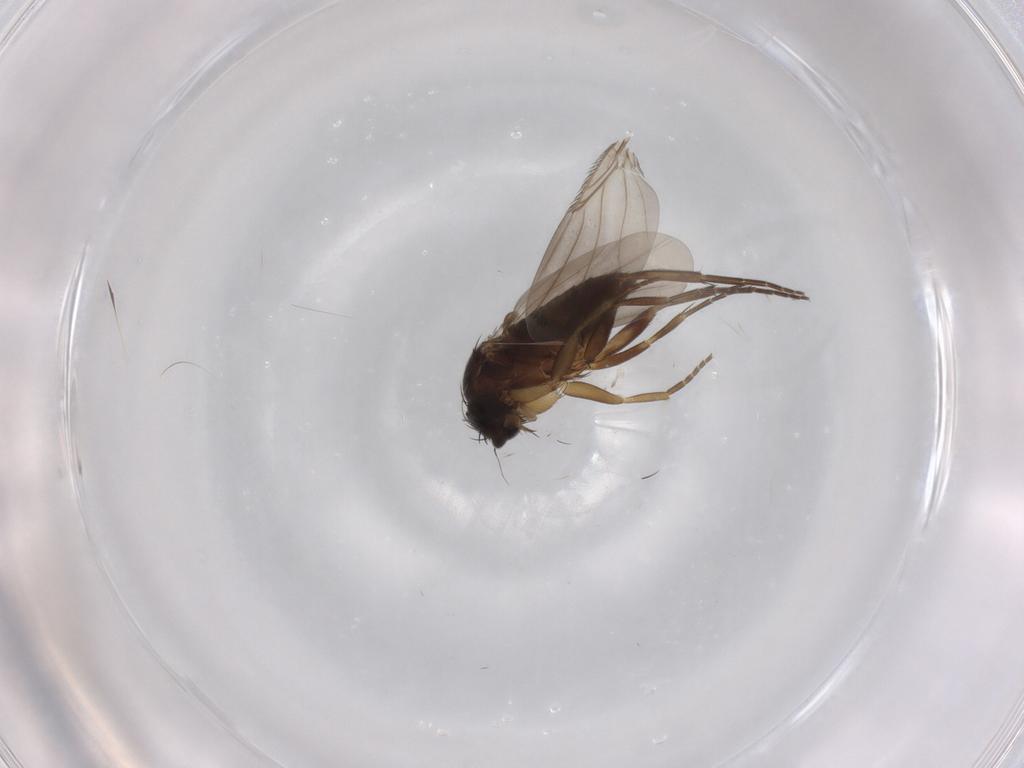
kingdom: Animalia
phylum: Arthropoda
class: Insecta
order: Diptera
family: Phoridae
